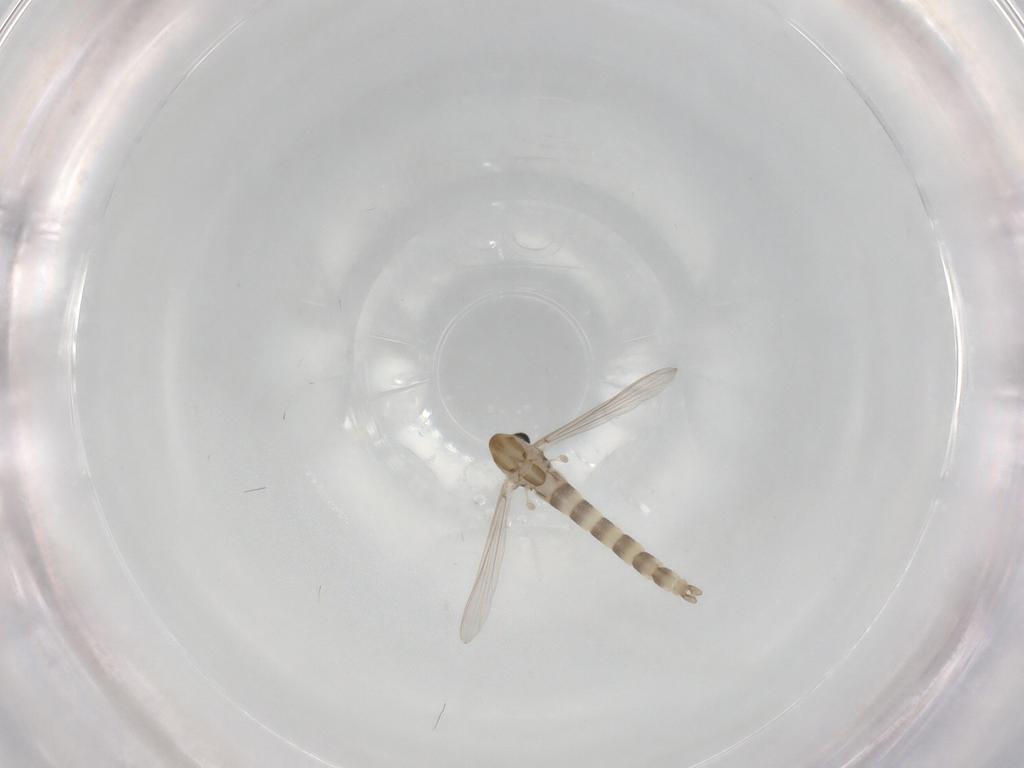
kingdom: Animalia
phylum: Arthropoda
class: Insecta
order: Diptera
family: Chironomidae
